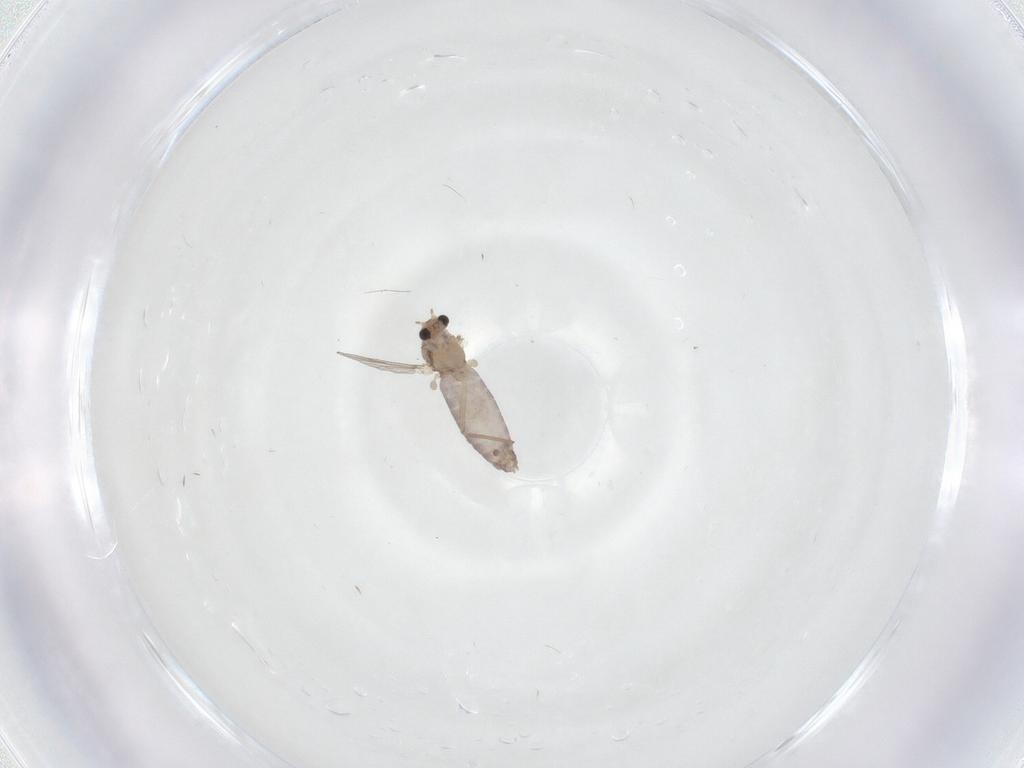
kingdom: Animalia
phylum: Arthropoda
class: Insecta
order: Diptera
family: Chironomidae
